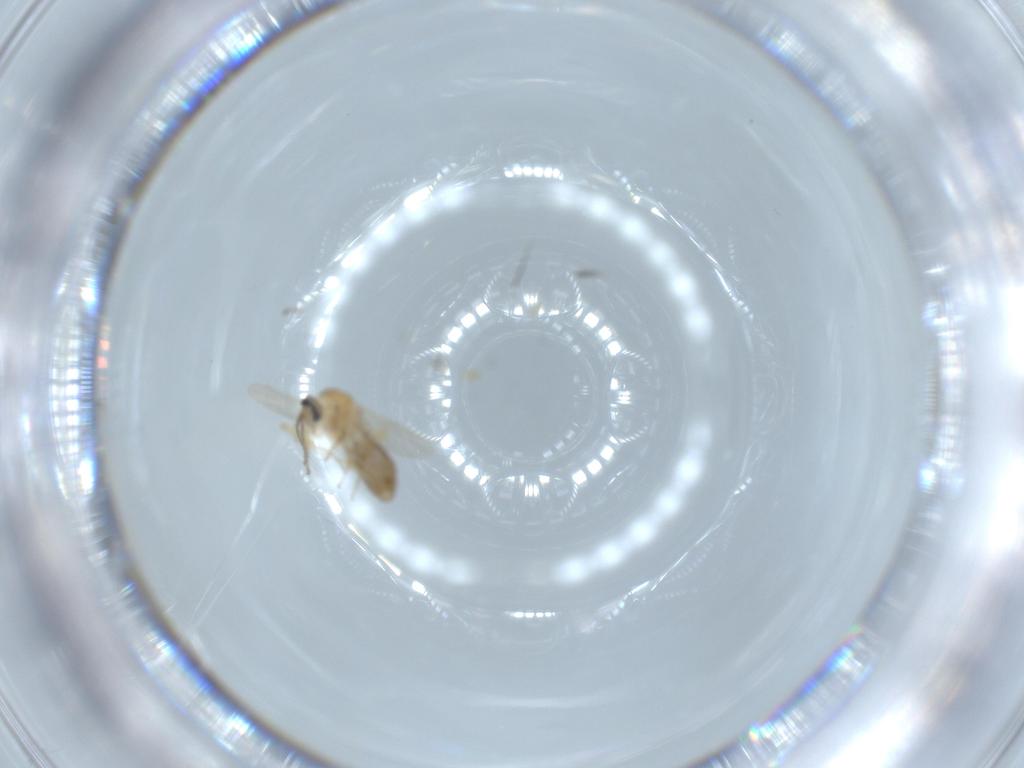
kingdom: Animalia
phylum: Arthropoda
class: Insecta
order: Diptera
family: Ceratopogonidae
